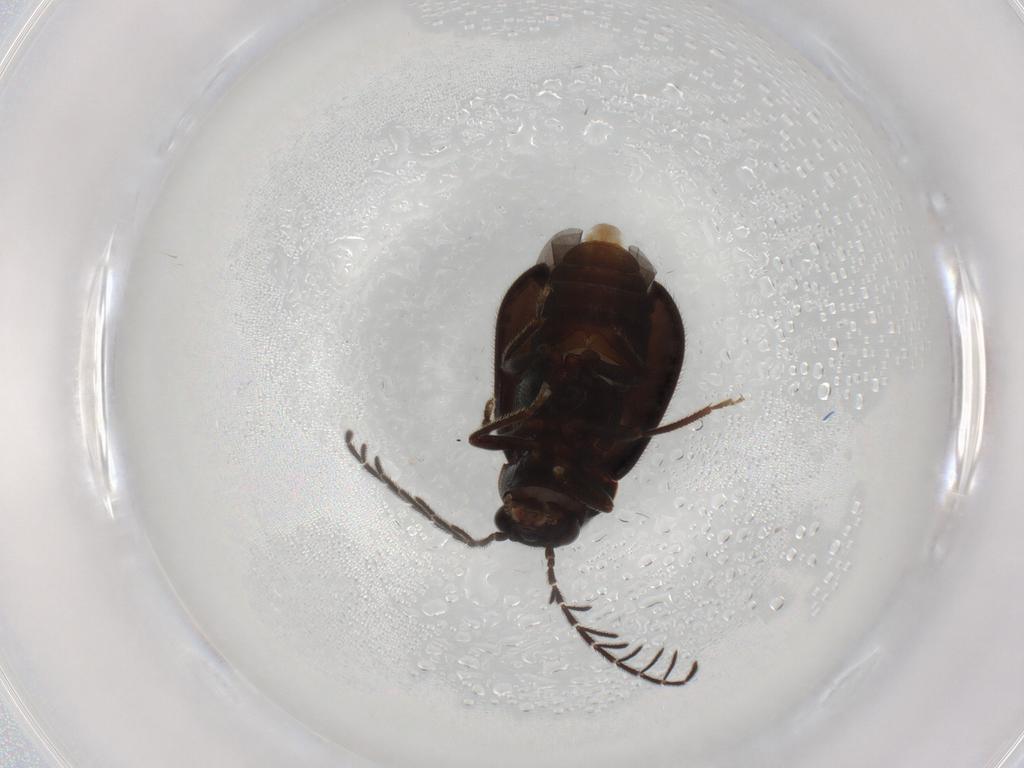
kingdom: Animalia
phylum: Arthropoda
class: Insecta
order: Coleoptera
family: Ptilodactylidae
